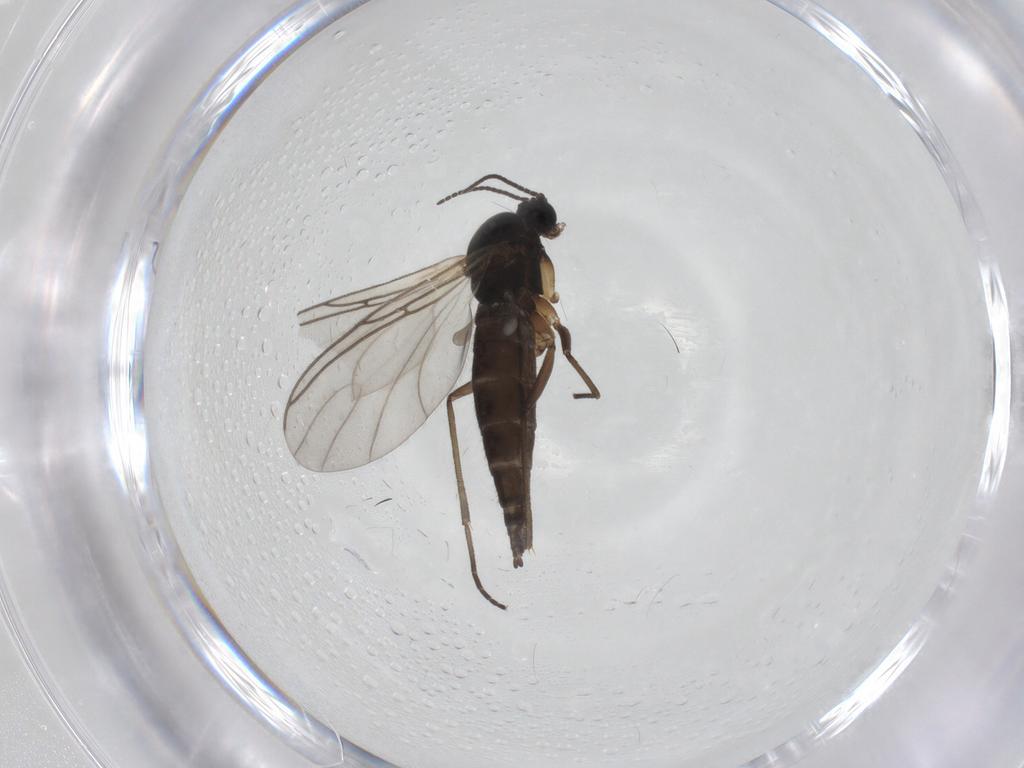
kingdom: Animalia
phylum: Arthropoda
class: Insecta
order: Diptera
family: Sciaridae
